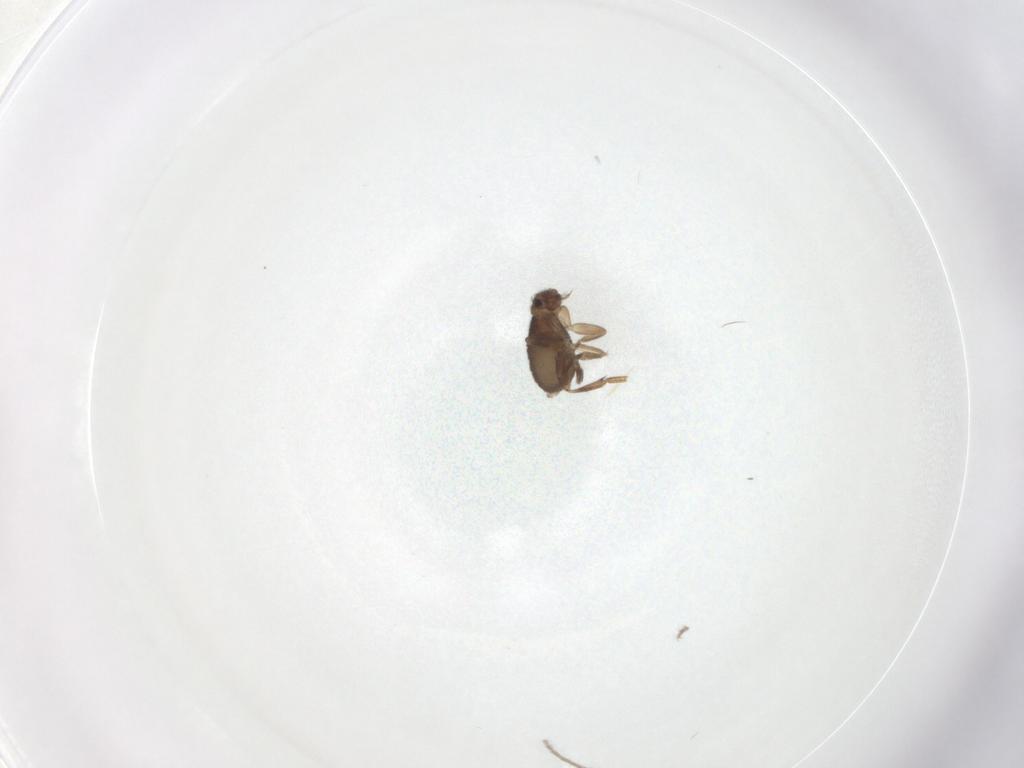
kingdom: Animalia
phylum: Arthropoda
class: Insecta
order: Diptera
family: Phoridae
